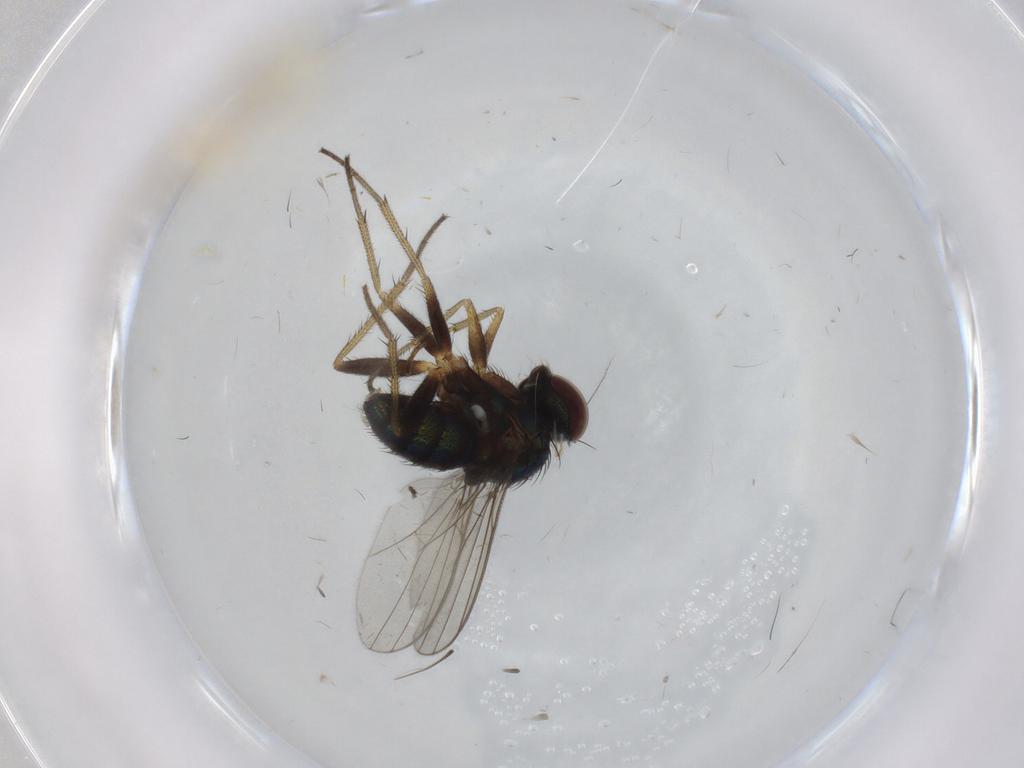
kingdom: Animalia
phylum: Arthropoda
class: Insecta
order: Diptera
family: Chironomidae
